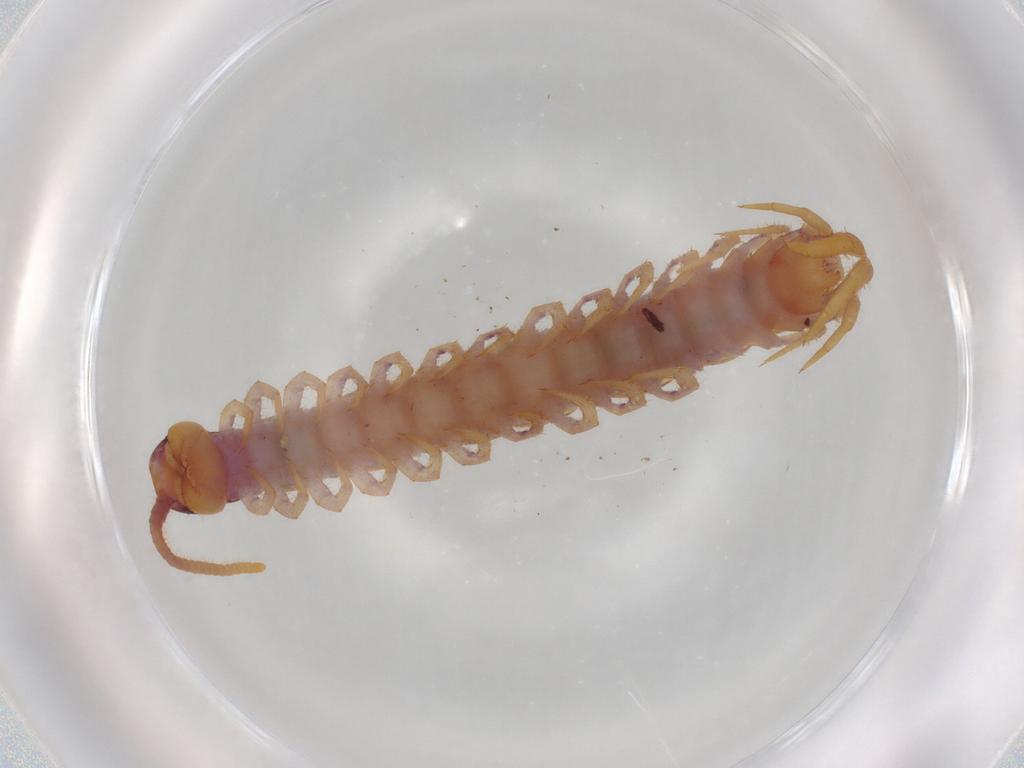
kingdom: Animalia
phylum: Arthropoda
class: Chilopoda
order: Lithobiomorpha
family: Lithobiidae
